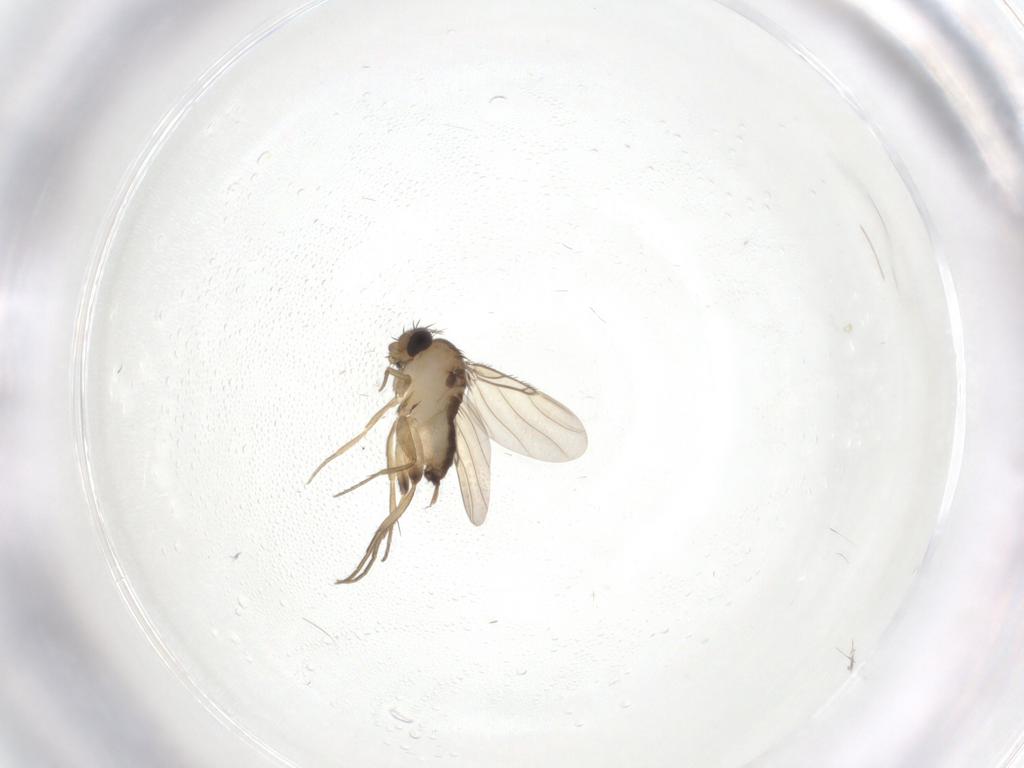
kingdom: Animalia
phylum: Arthropoda
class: Insecta
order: Diptera
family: Phoridae
